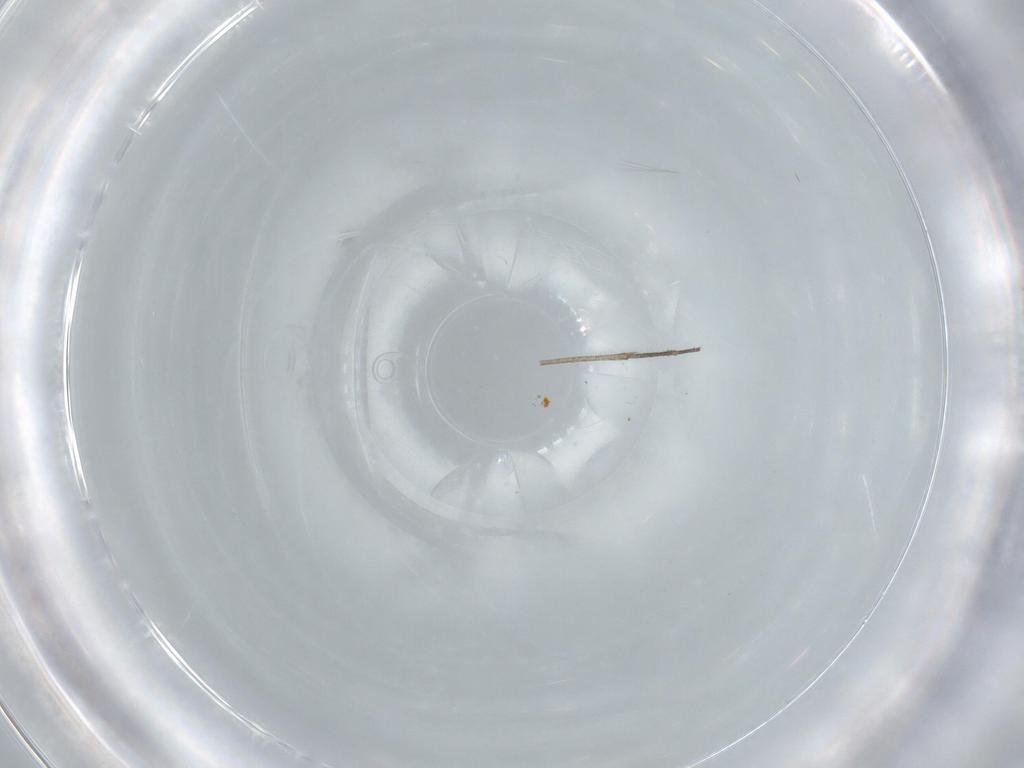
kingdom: Animalia
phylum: Arthropoda
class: Insecta
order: Diptera
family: Sciaridae
